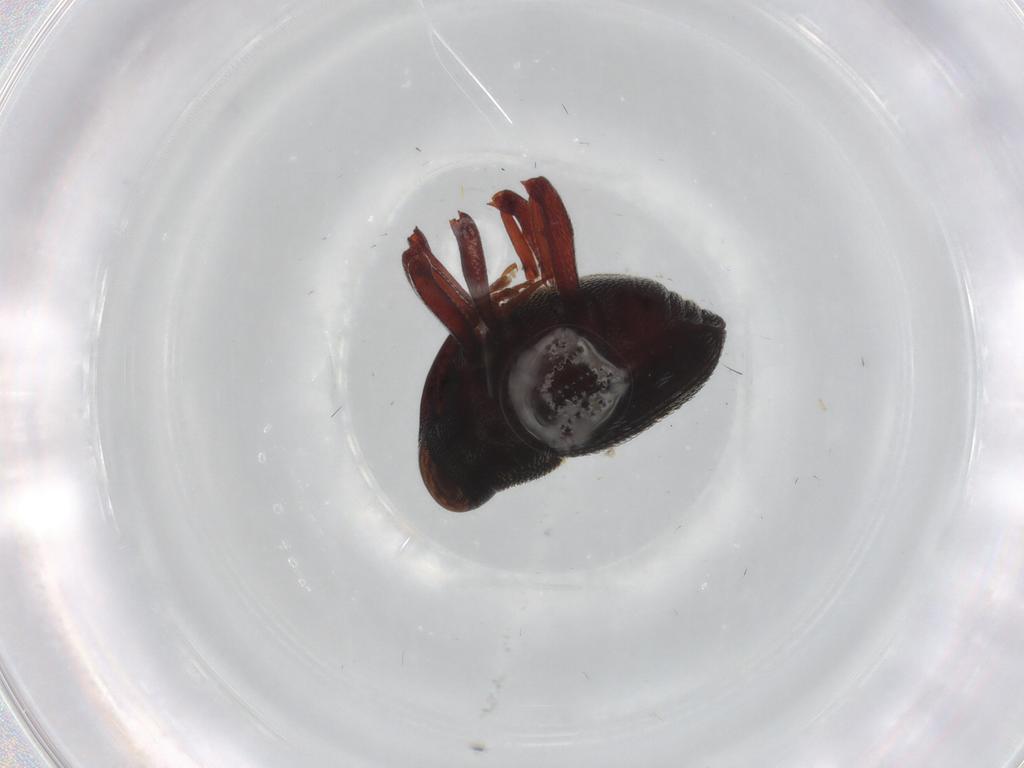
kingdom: Animalia
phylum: Arthropoda
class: Insecta
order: Coleoptera
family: Curculionidae
